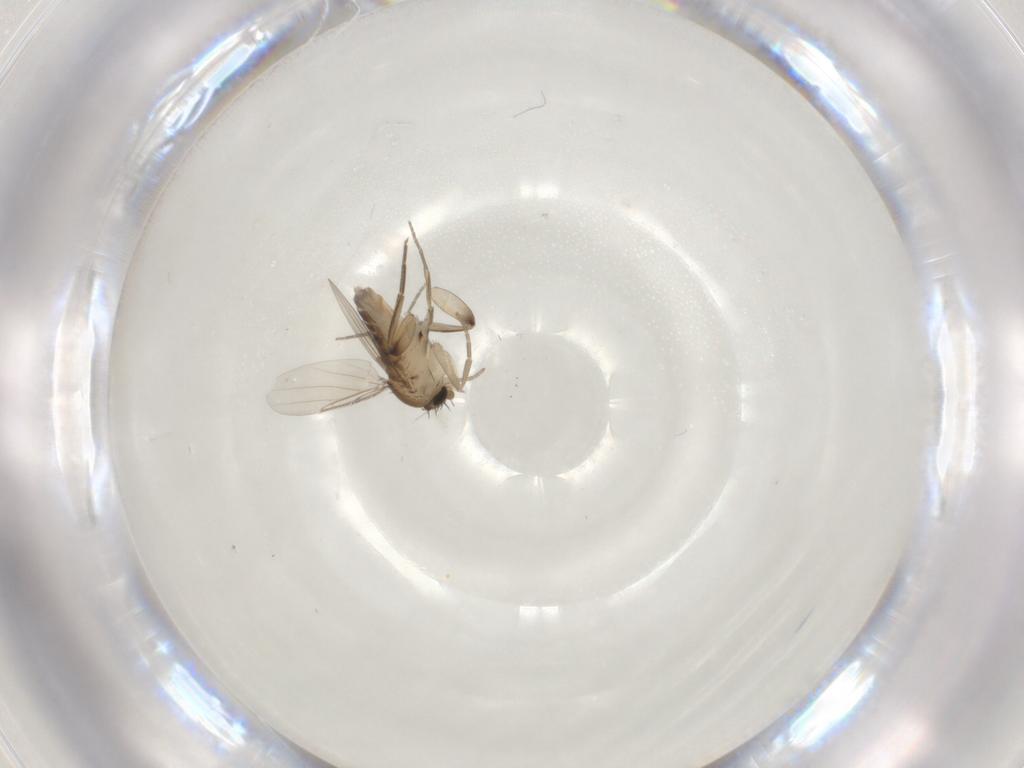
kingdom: Animalia
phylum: Arthropoda
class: Insecta
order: Diptera
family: Phoridae
